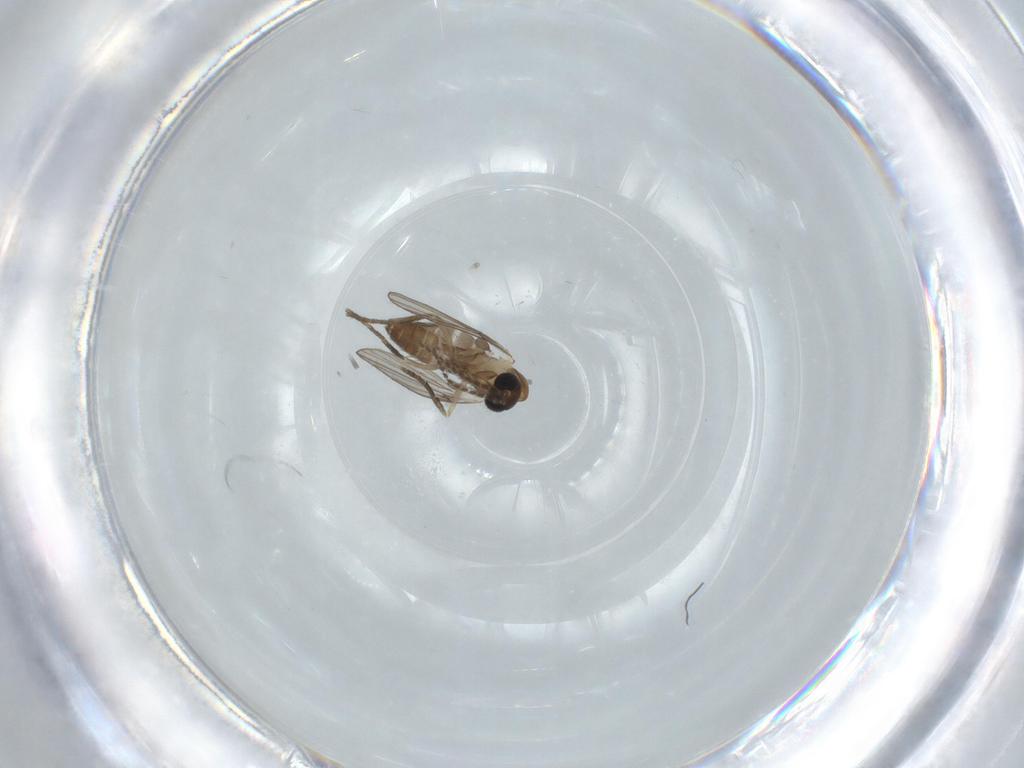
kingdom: Animalia
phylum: Arthropoda
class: Insecta
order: Diptera
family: Psychodidae
